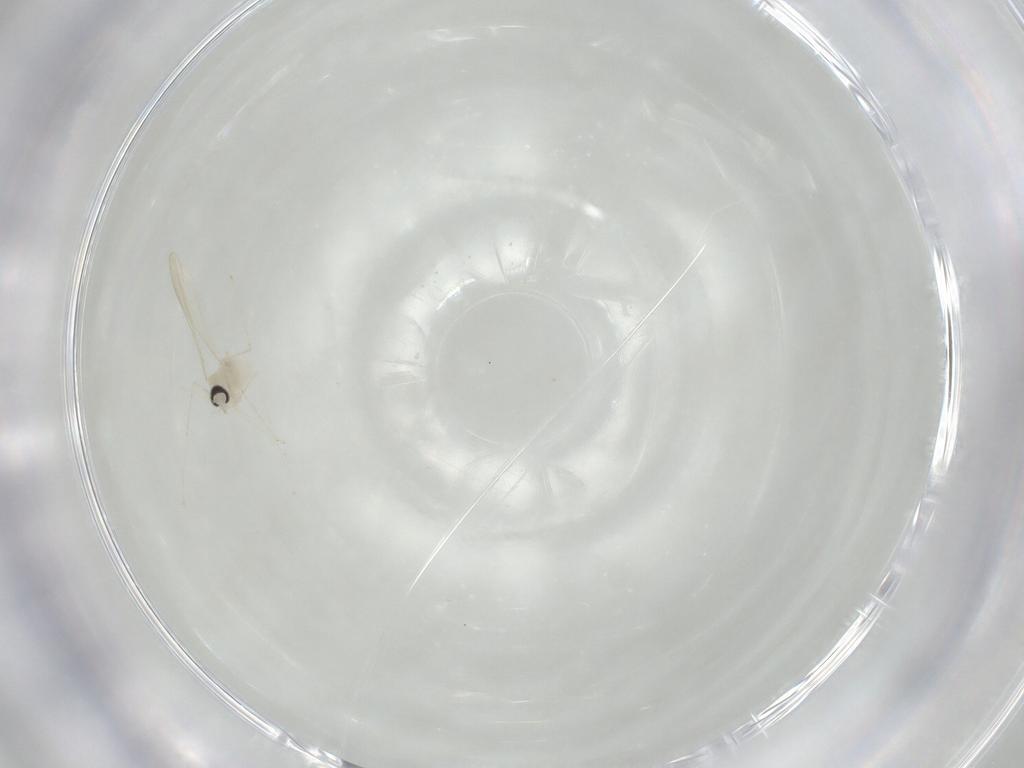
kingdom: Animalia
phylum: Arthropoda
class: Insecta
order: Diptera
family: Cecidomyiidae
